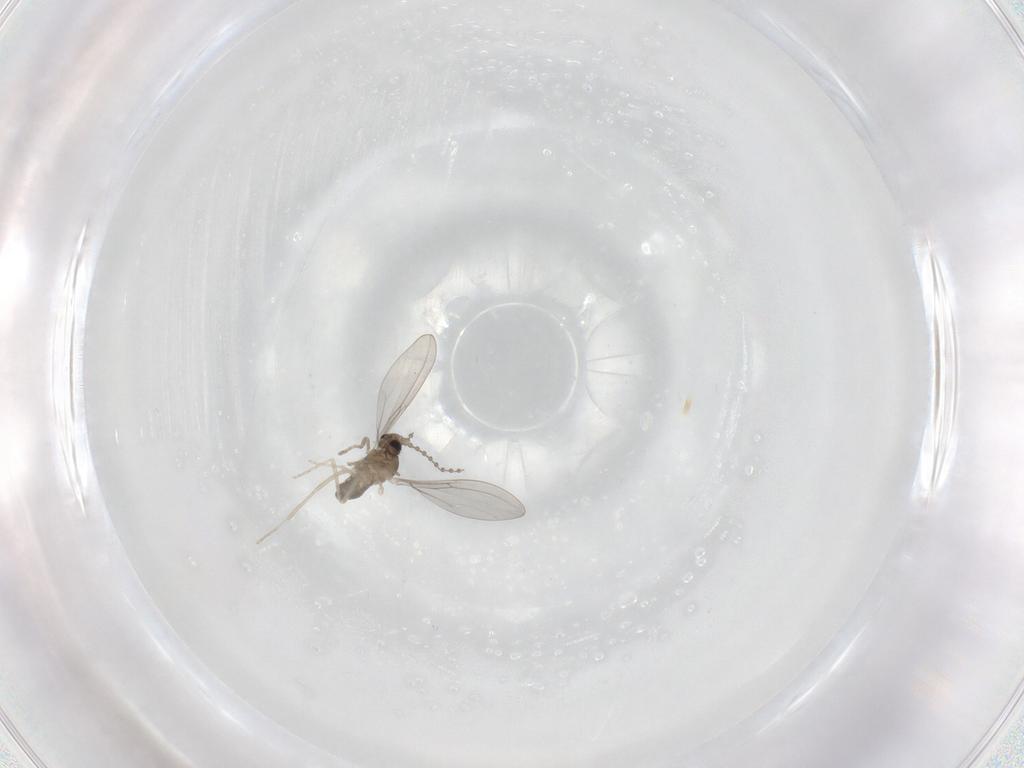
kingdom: Animalia
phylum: Arthropoda
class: Insecta
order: Diptera
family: Cecidomyiidae
